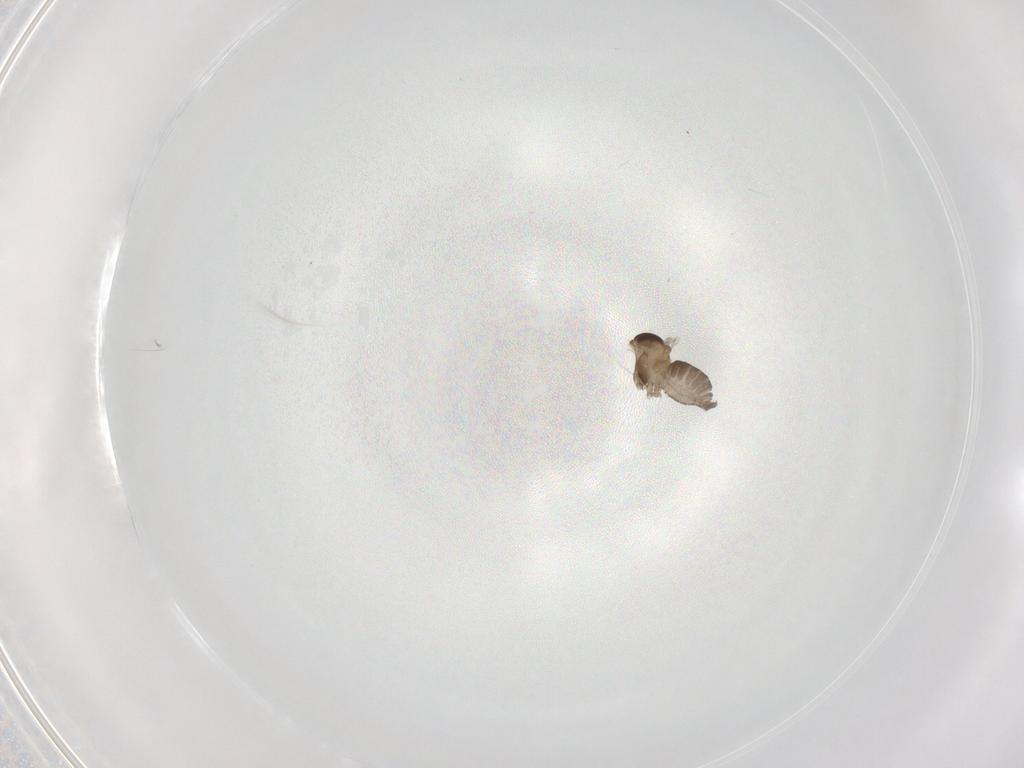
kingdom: Animalia
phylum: Arthropoda
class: Insecta
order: Diptera
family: Cecidomyiidae
